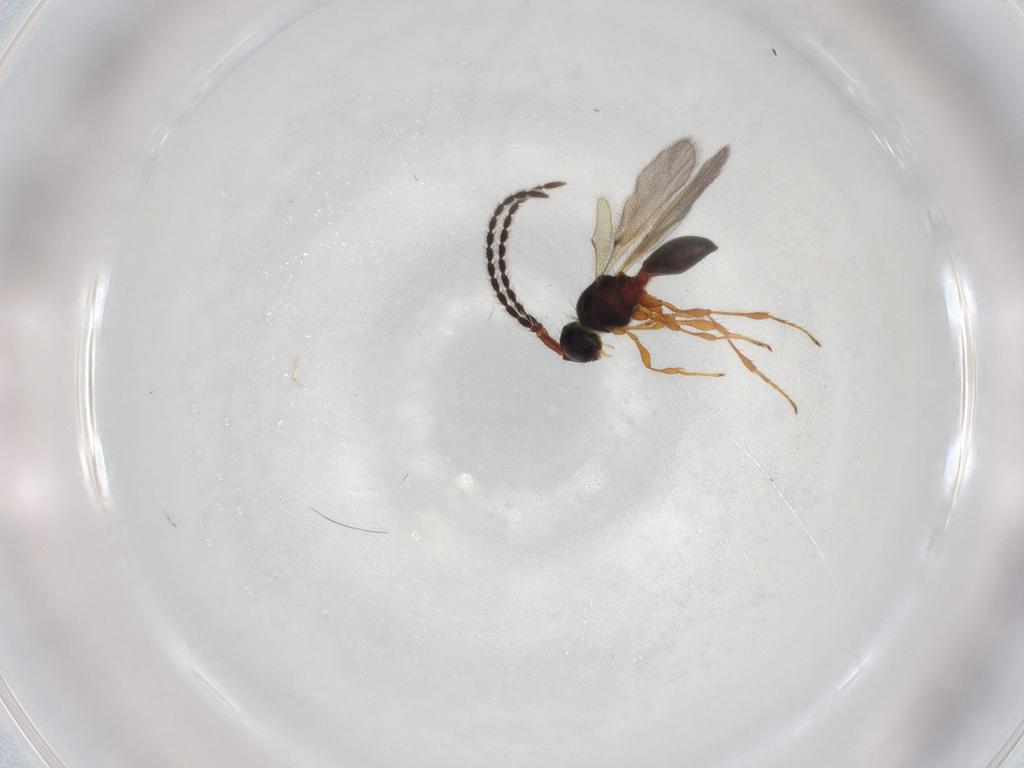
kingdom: Animalia
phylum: Arthropoda
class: Insecta
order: Hymenoptera
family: Diapriidae
